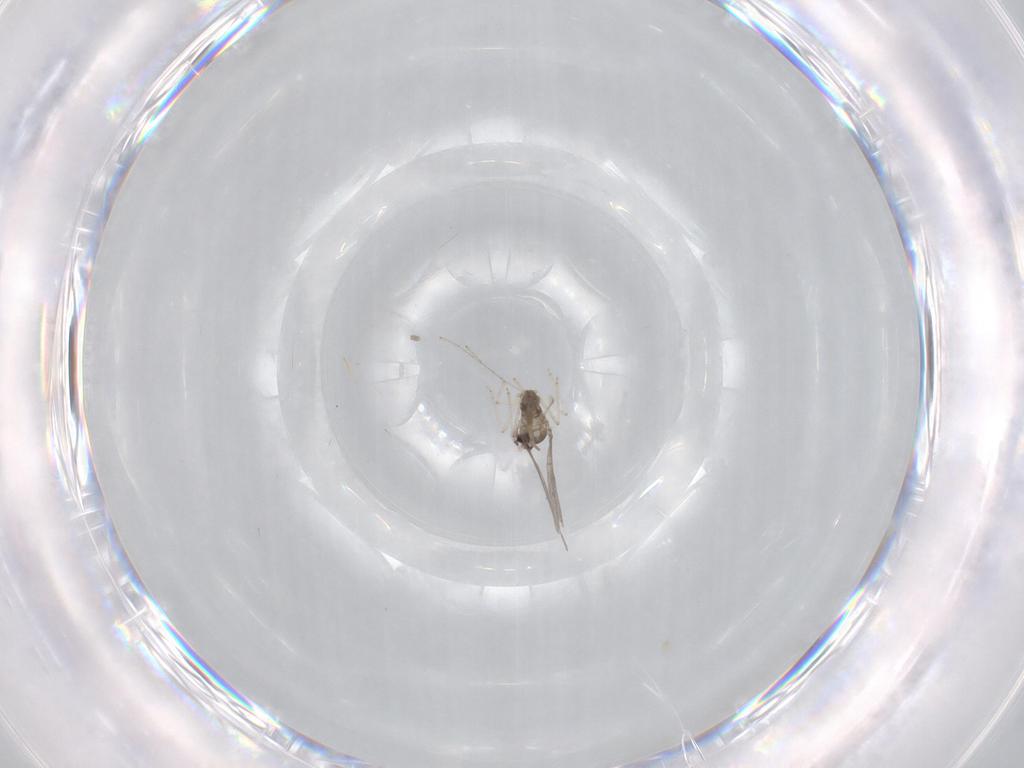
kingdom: Animalia
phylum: Arthropoda
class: Insecta
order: Diptera
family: Cecidomyiidae
